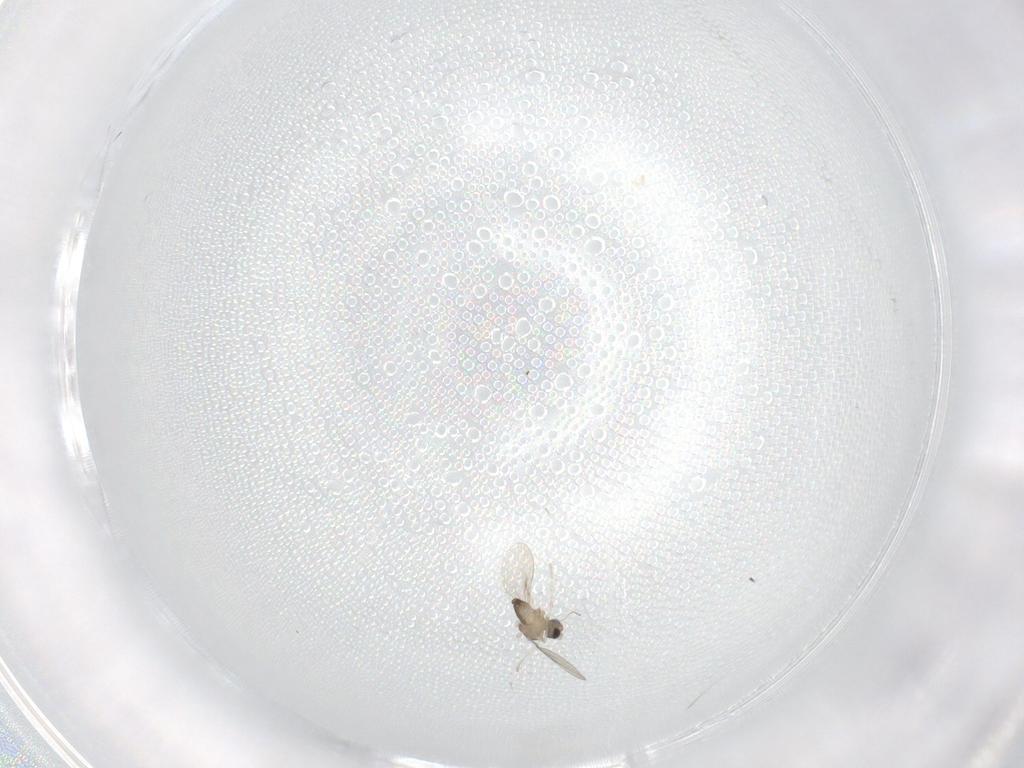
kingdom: Animalia
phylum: Arthropoda
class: Insecta
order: Diptera
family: Cecidomyiidae
